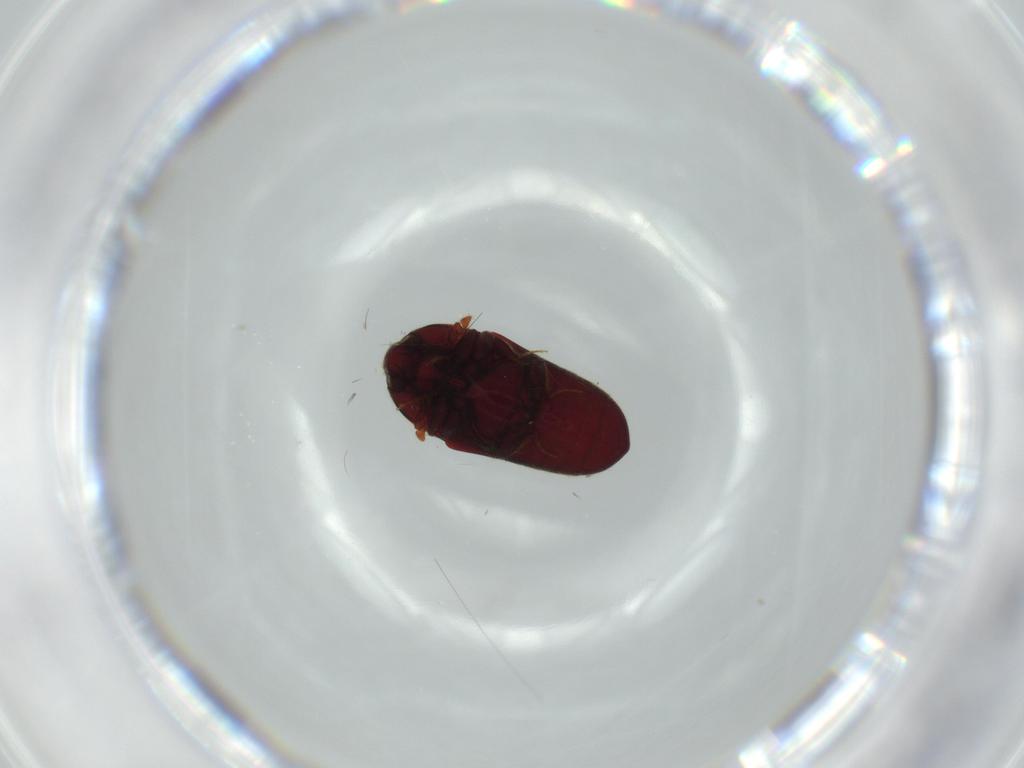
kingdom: Animalia
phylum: Arthropoda
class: Insecta
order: Coleoptera
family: Throscidae
